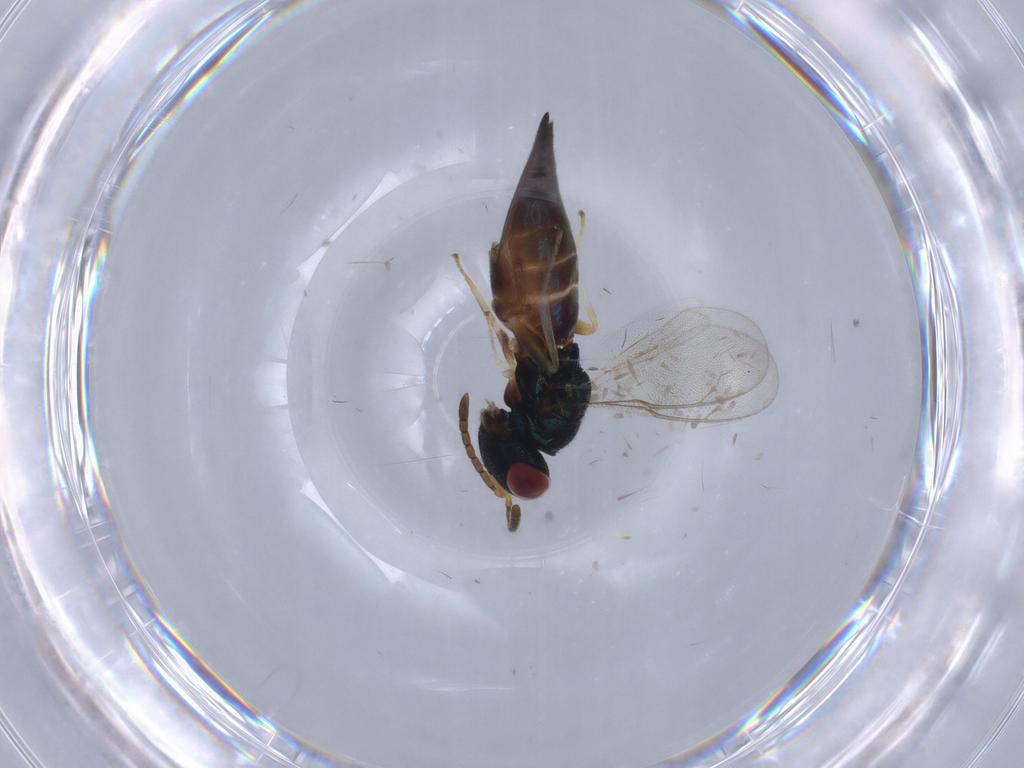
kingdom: Animalia
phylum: Arthropoda
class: Insecta
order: Hymenoptera
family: Pteromalidae
